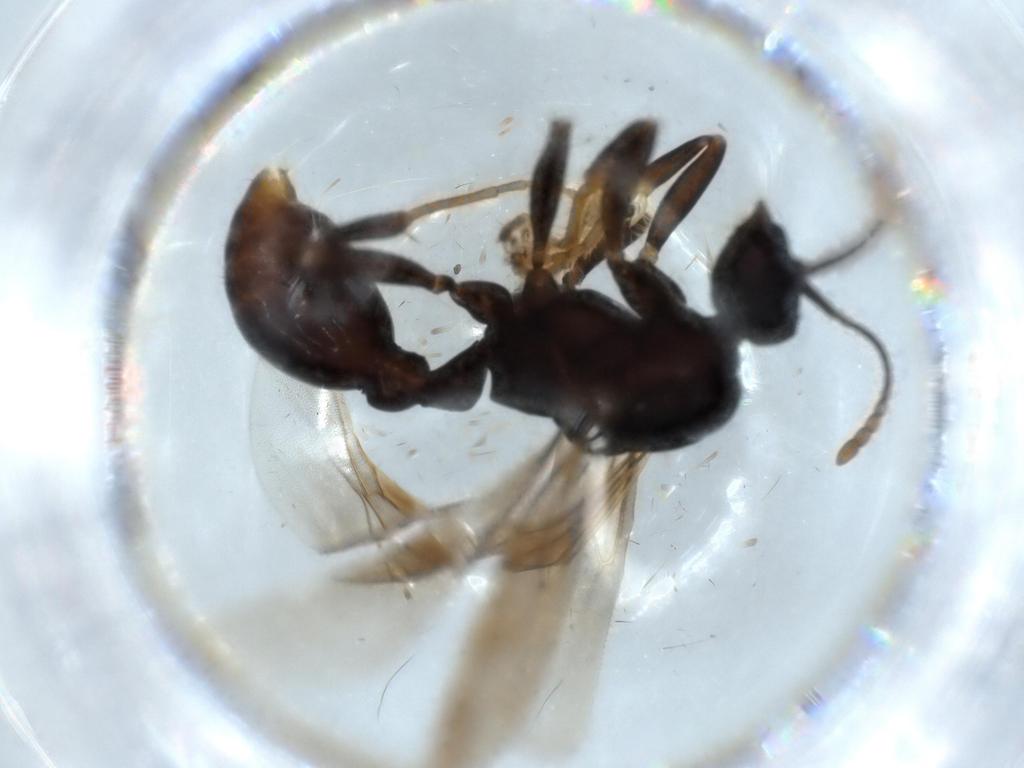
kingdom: Animalia
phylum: Arthropoda
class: Insecta
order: Hymenoptera
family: Formicidae
